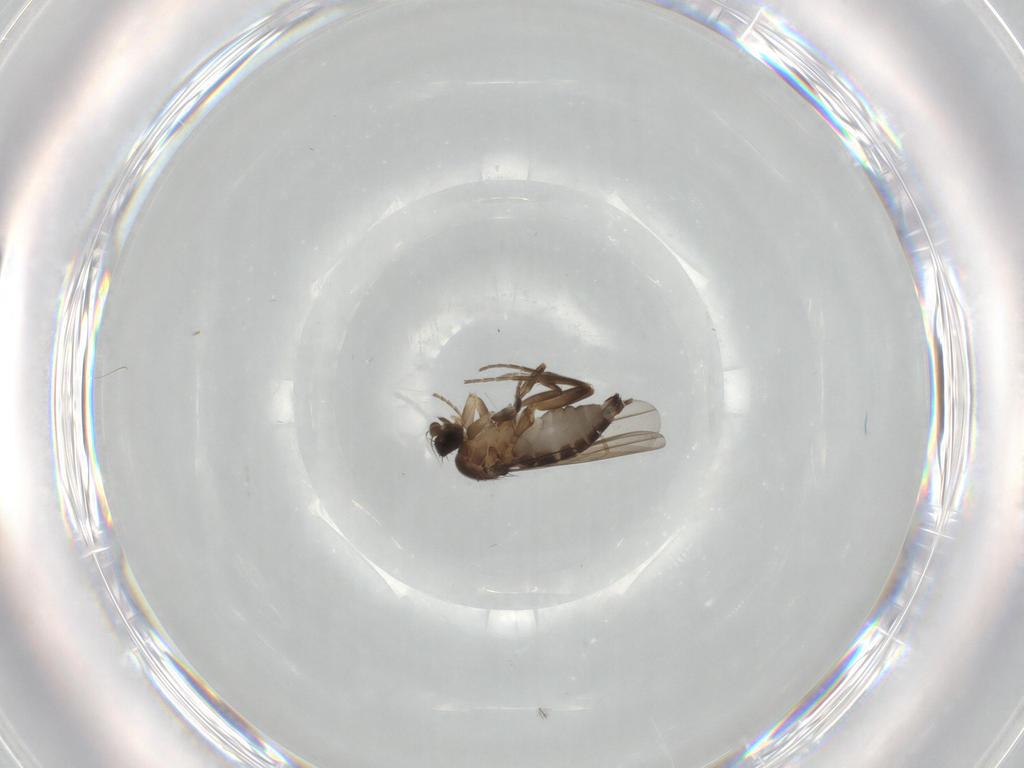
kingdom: Animalia
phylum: Arthropoda
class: Insecta
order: Diptera
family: Phoridae
